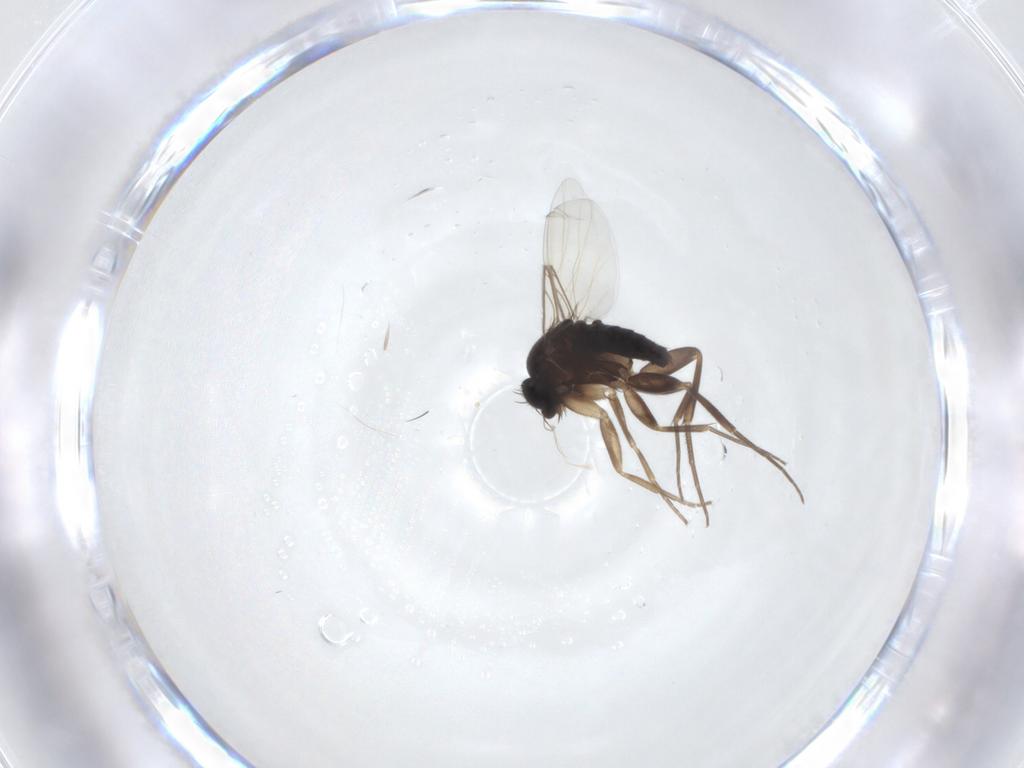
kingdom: Animalia
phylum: Arthropoda
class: Insecta
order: Diptera
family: Phoridae
